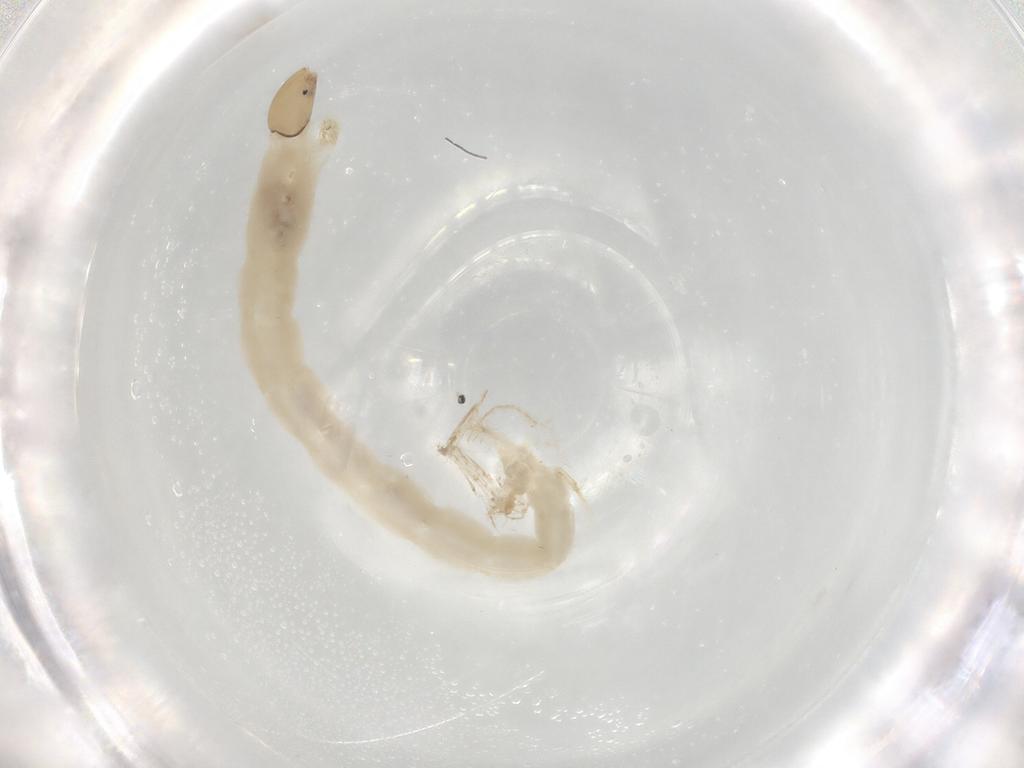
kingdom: Animalia
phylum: Arthropoda
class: Insecta
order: Diptera
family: Chironomidae
